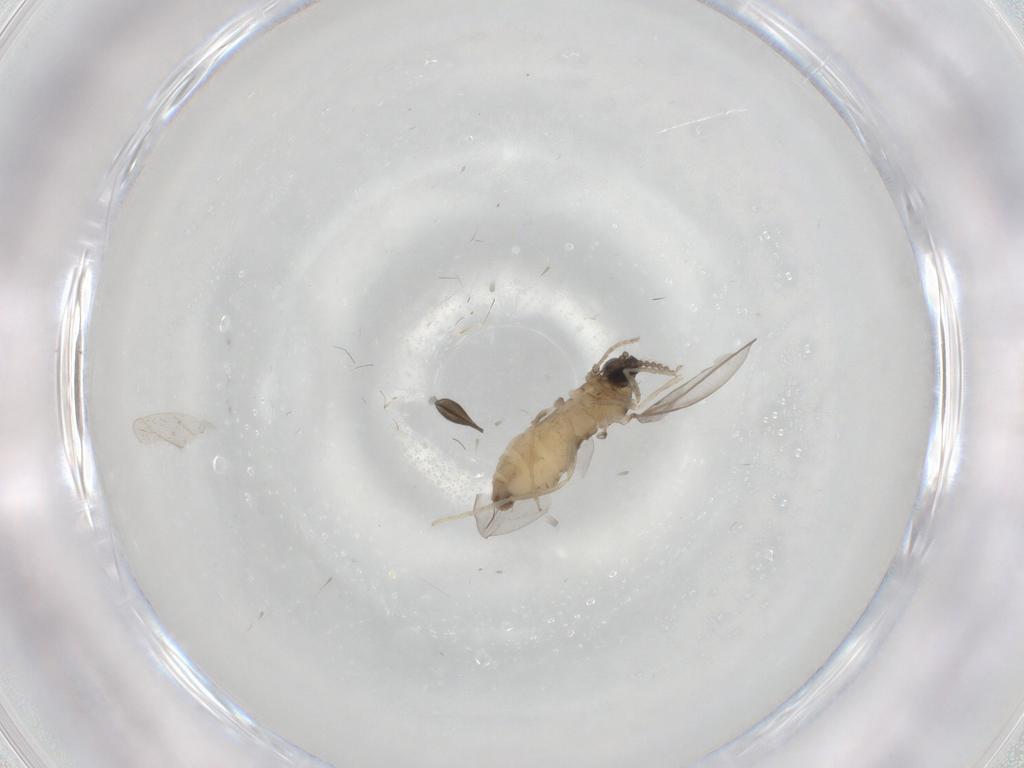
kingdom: Animalia
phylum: Arthropoda
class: Insecta
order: Diptera
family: Cecidomyiidae
